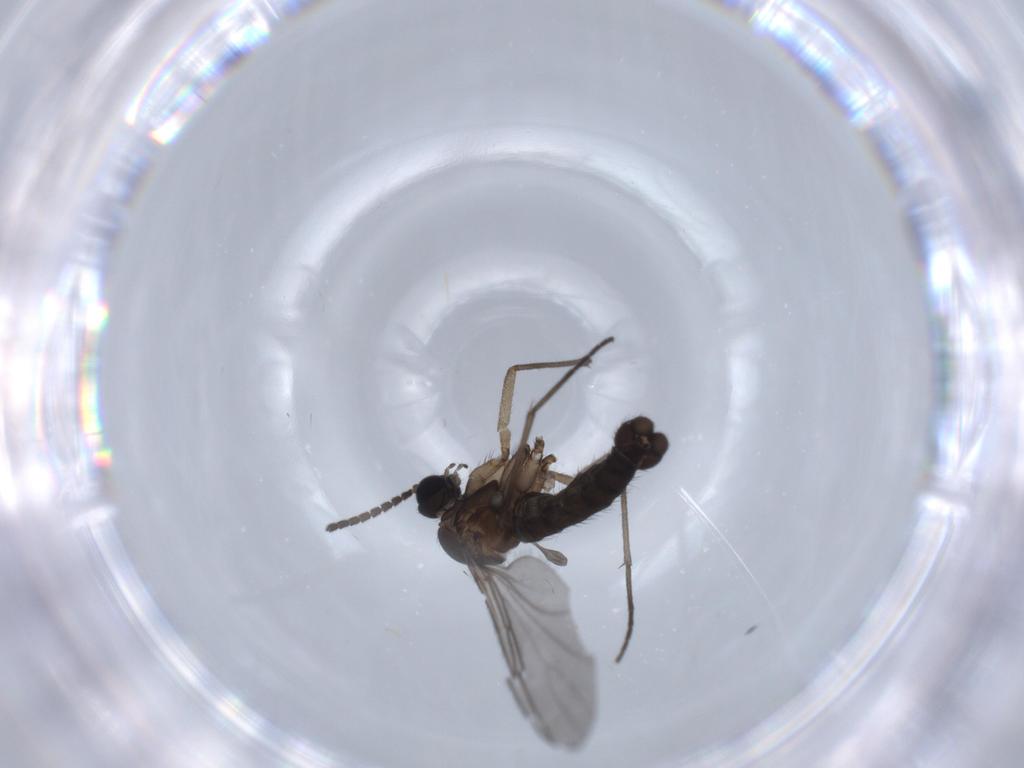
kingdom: Animalia
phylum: Arthropoda
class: Insecta
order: Diptera
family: Sciaridae
